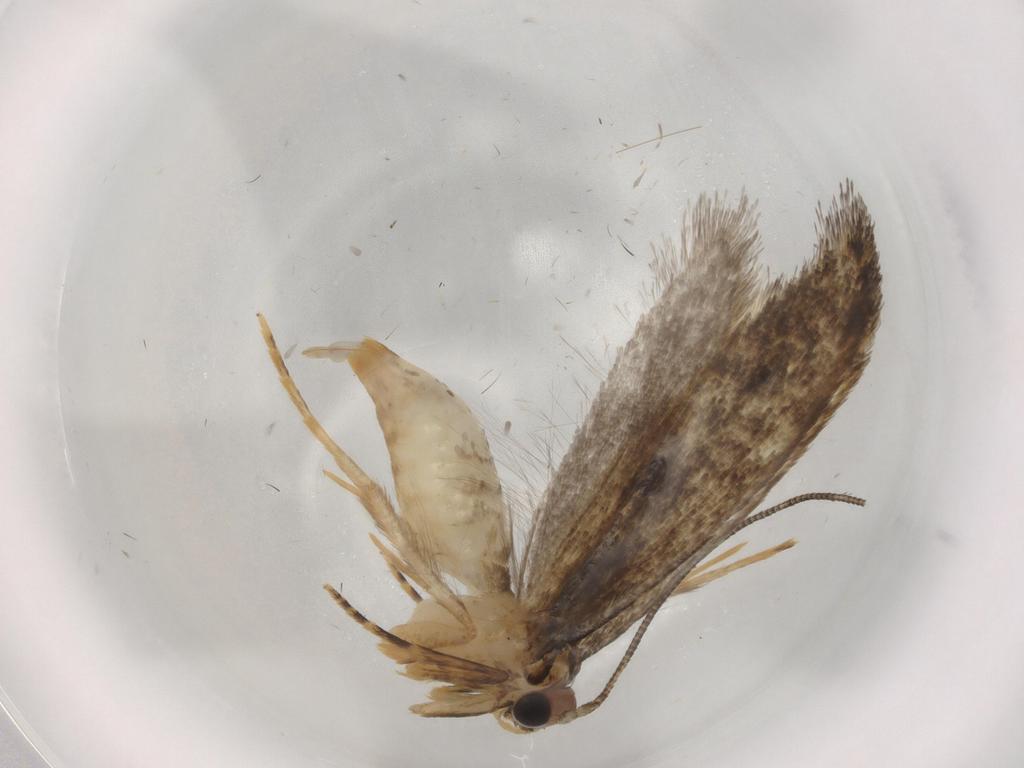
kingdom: Animalia
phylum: Arthropoda
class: Insecta
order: Lepidoptera
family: Tineidae
